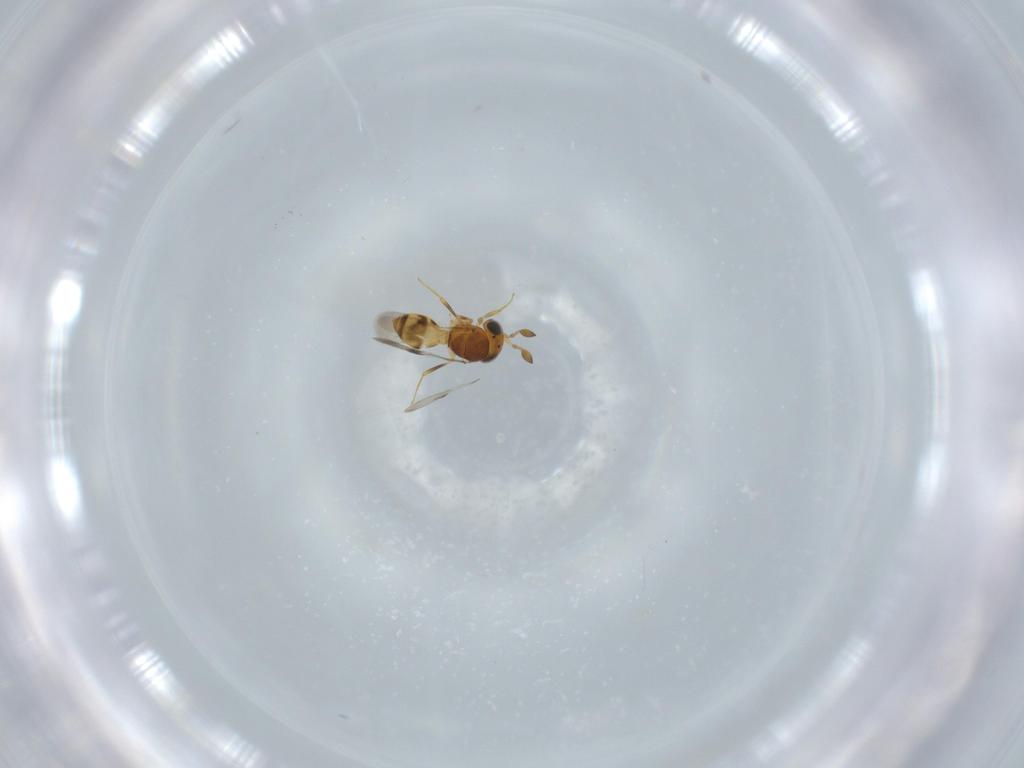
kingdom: Animalia
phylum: Arthropoda
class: Insecta
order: Hymenoptera
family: Scelionidae
